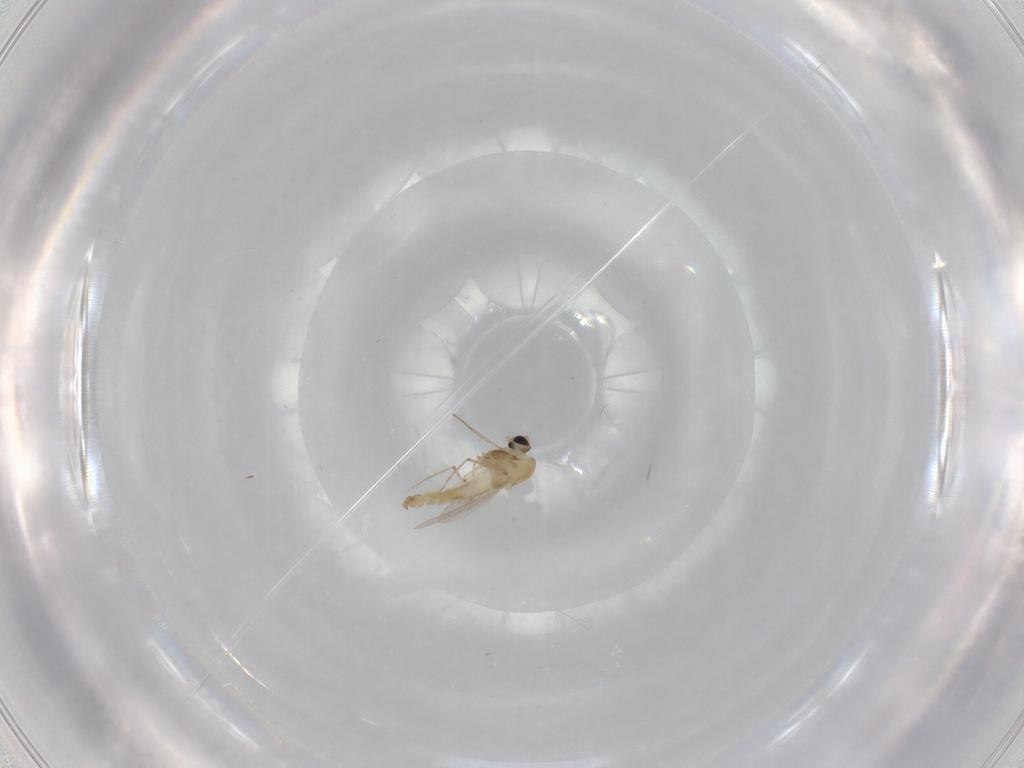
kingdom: Animalia
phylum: Arthropoda
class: Insecta
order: Diptera
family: Chironomidae
